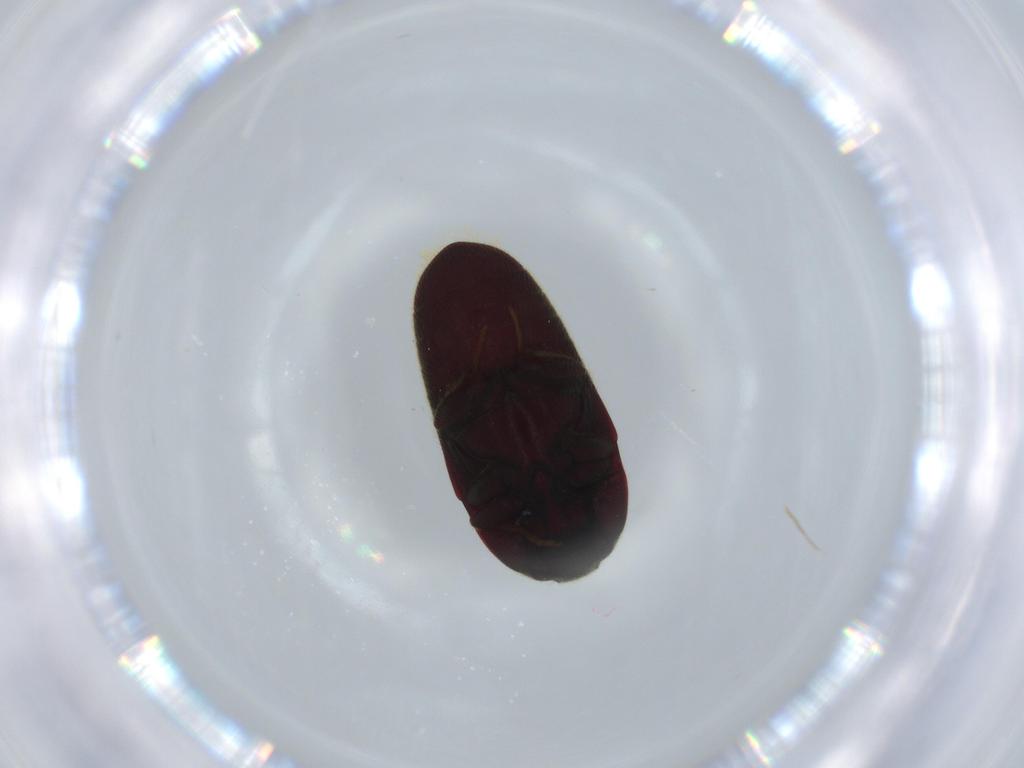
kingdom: Animalia
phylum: Arthropoda
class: Insecta
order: Coleoptera
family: Throscidae
